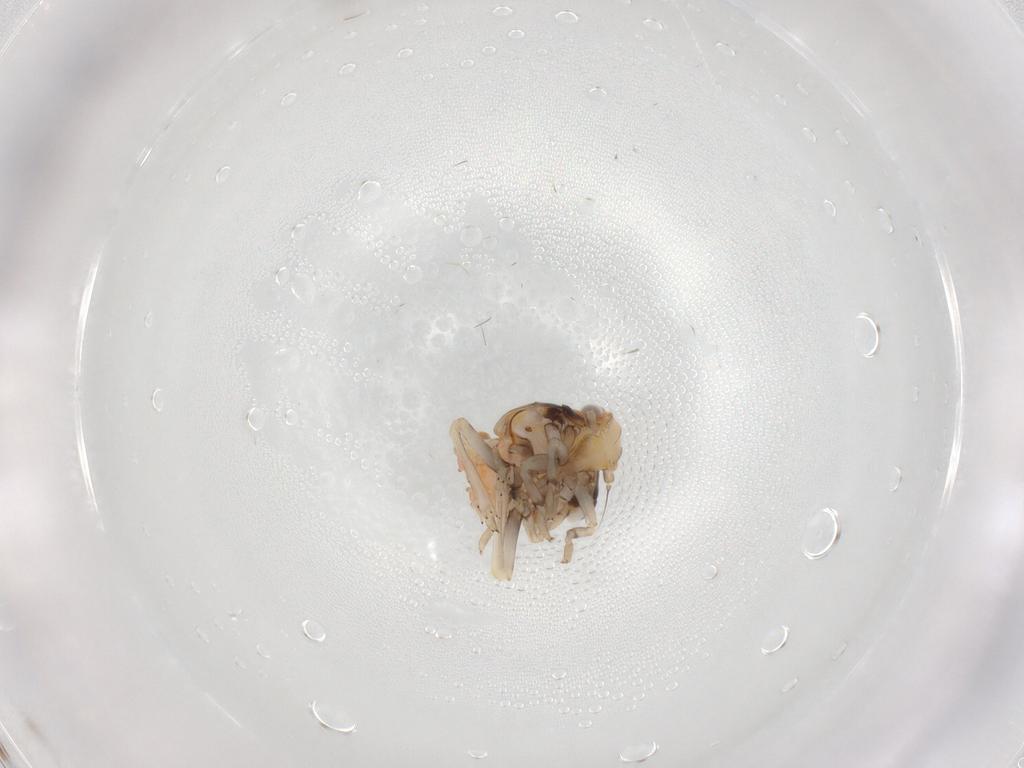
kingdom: Animalia
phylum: Arthropoda
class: Insecta
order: Hemiptera
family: Ricaniidae
